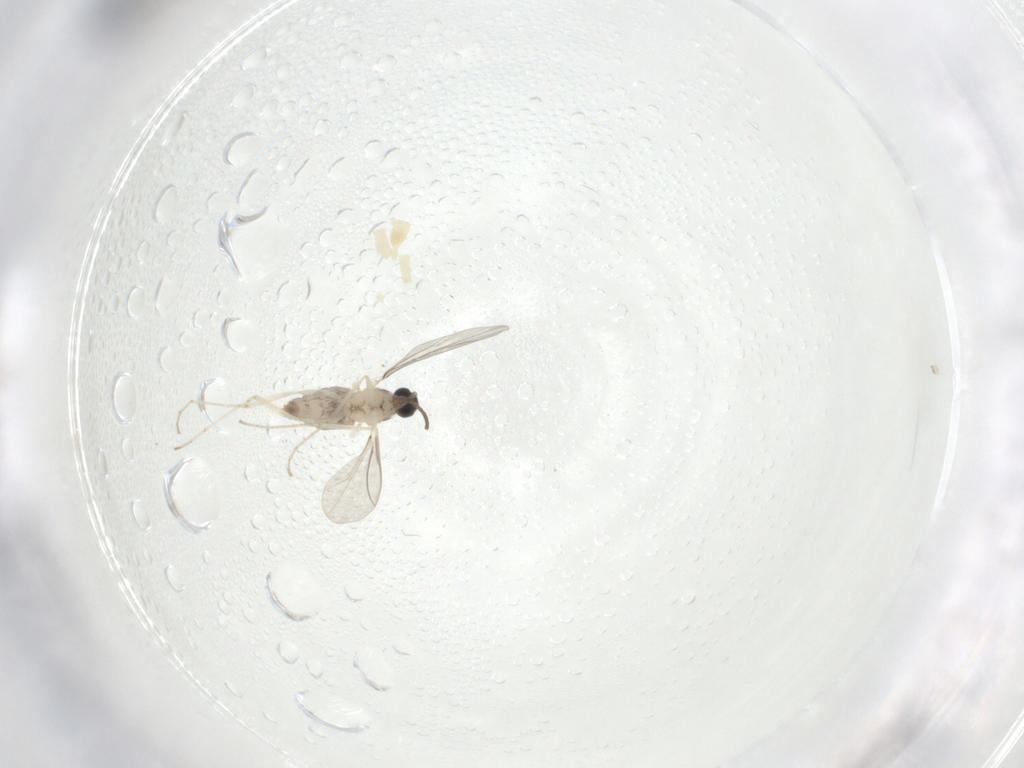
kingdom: Animalia
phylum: Arthropoda
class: Insecta
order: Diptera
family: Cecidomyiidae
